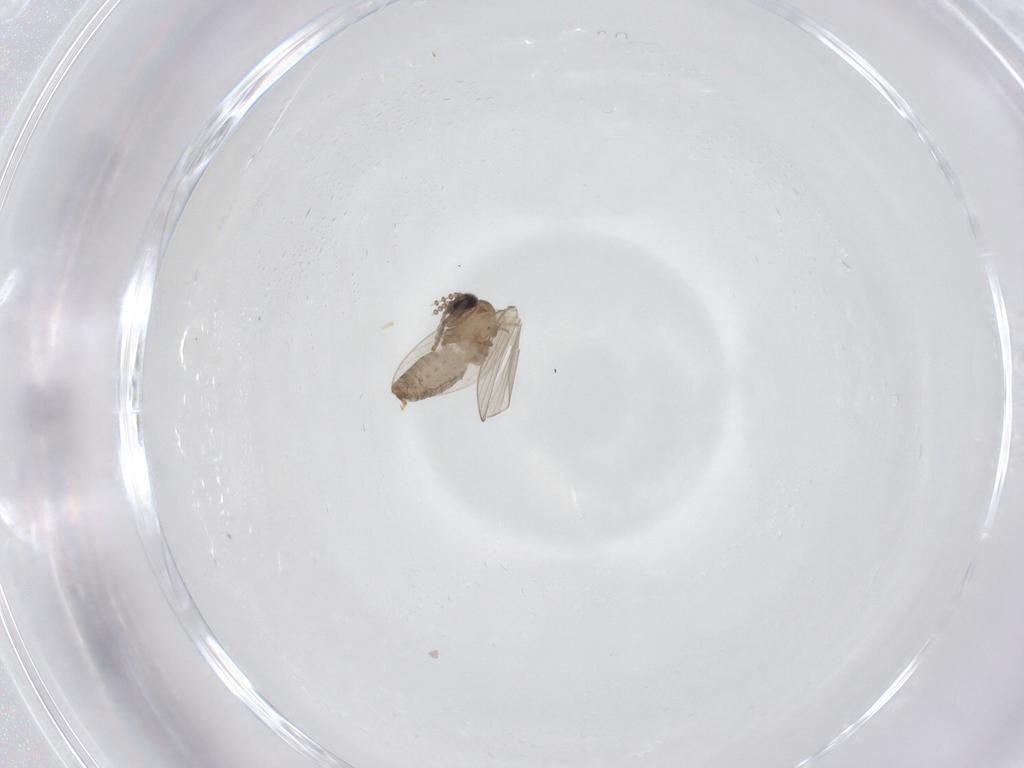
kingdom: Animalia
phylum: Arthropoda
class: Insecta
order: Diptera
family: Psychodidae
